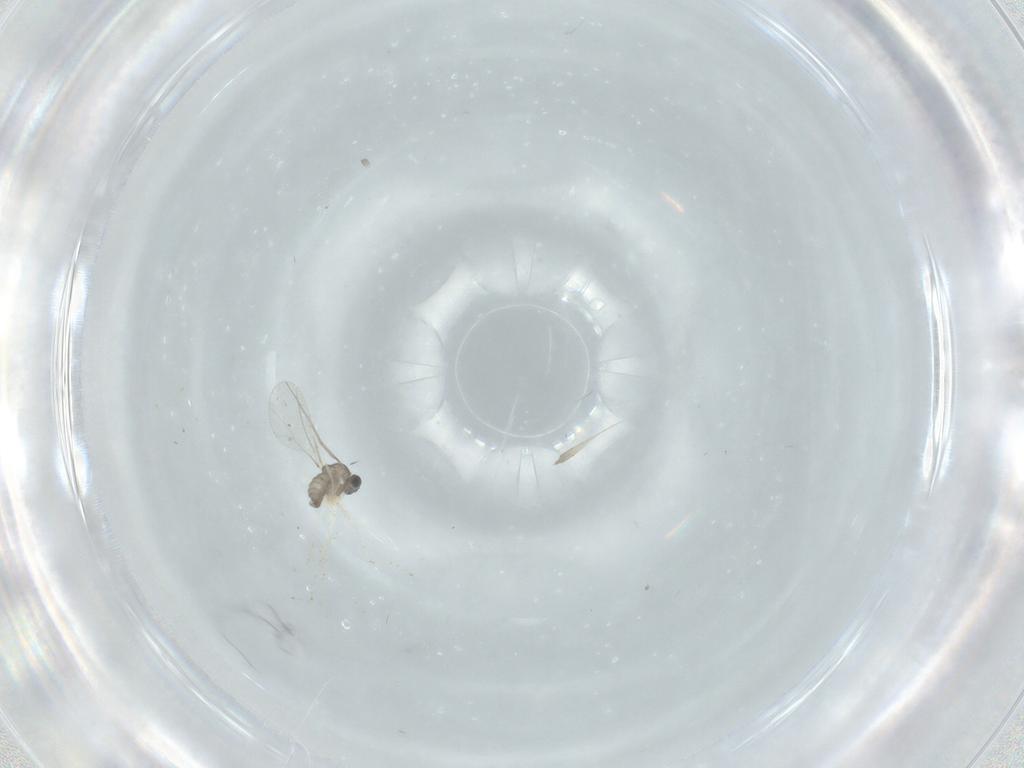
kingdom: Animalia
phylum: Arthropoda
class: Insecta
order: Diptera
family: Cecidomyiidae
